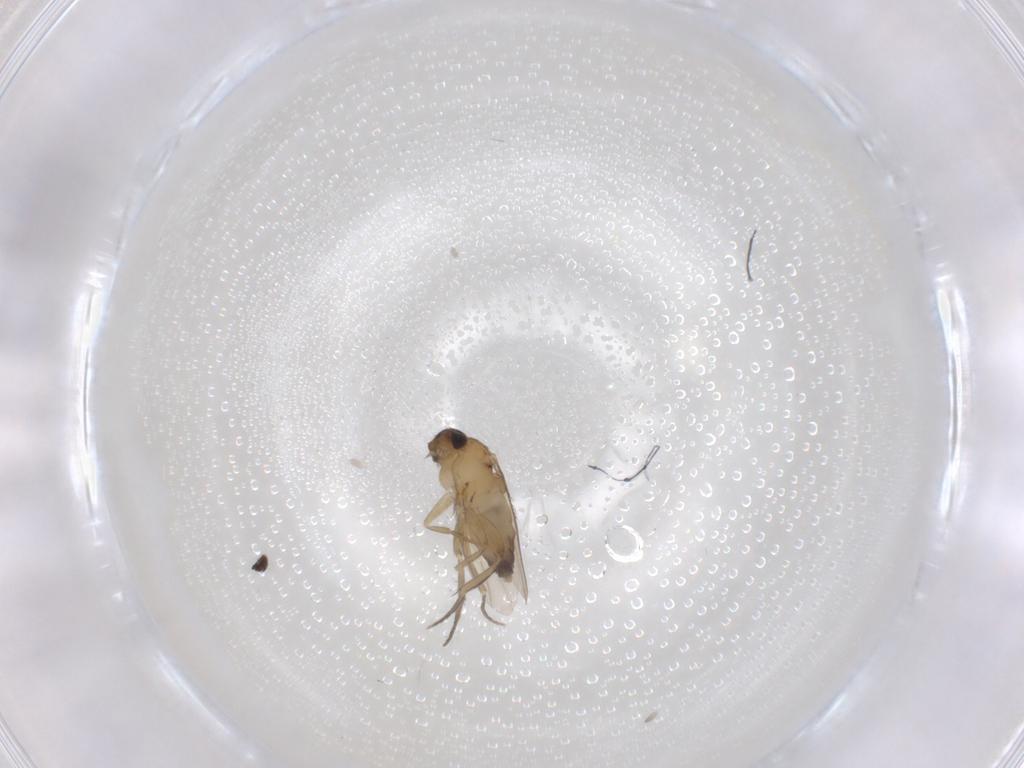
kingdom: Animalia
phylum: Arthropoda
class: Insecta
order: Diptera
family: Phoridae
